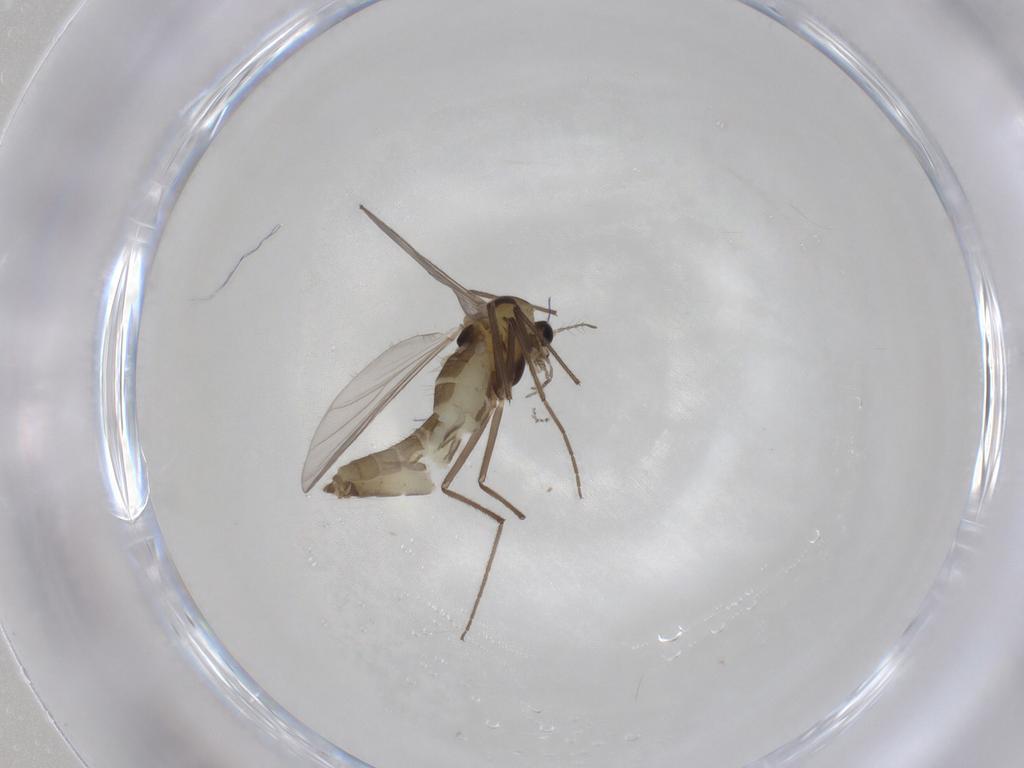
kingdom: Animalia
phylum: Arthropoda
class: Insecta
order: Diptera
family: Chironomidae
